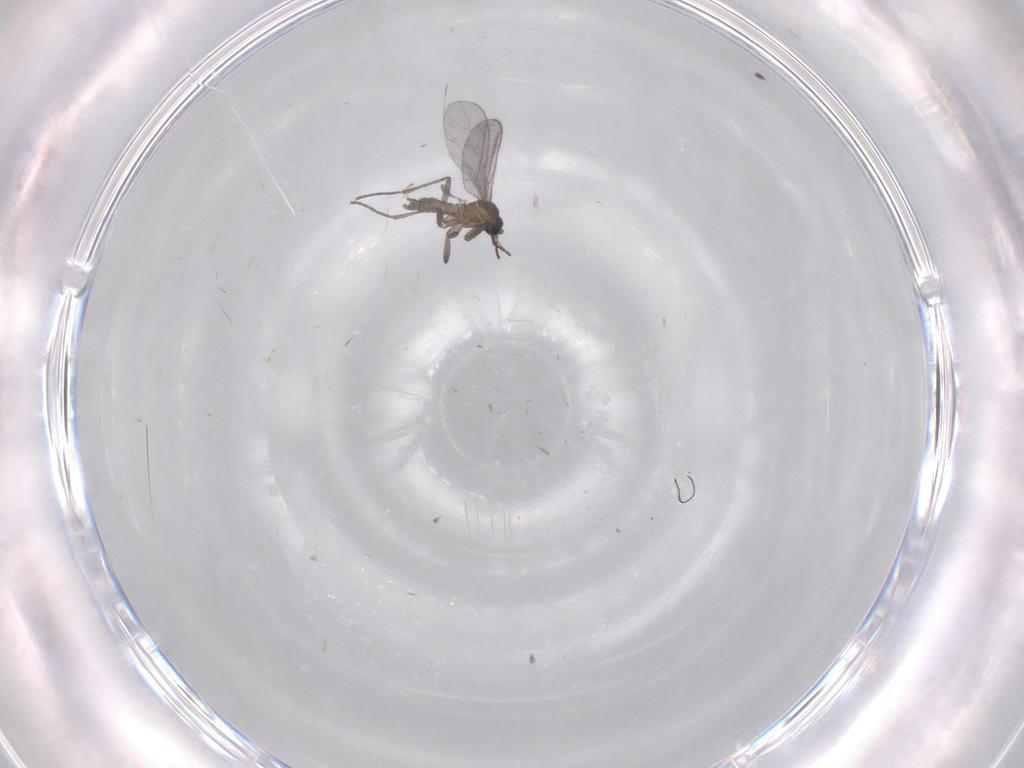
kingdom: Animalia
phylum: Arthropoda
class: Insecta
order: Diptera
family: Sciaridae
